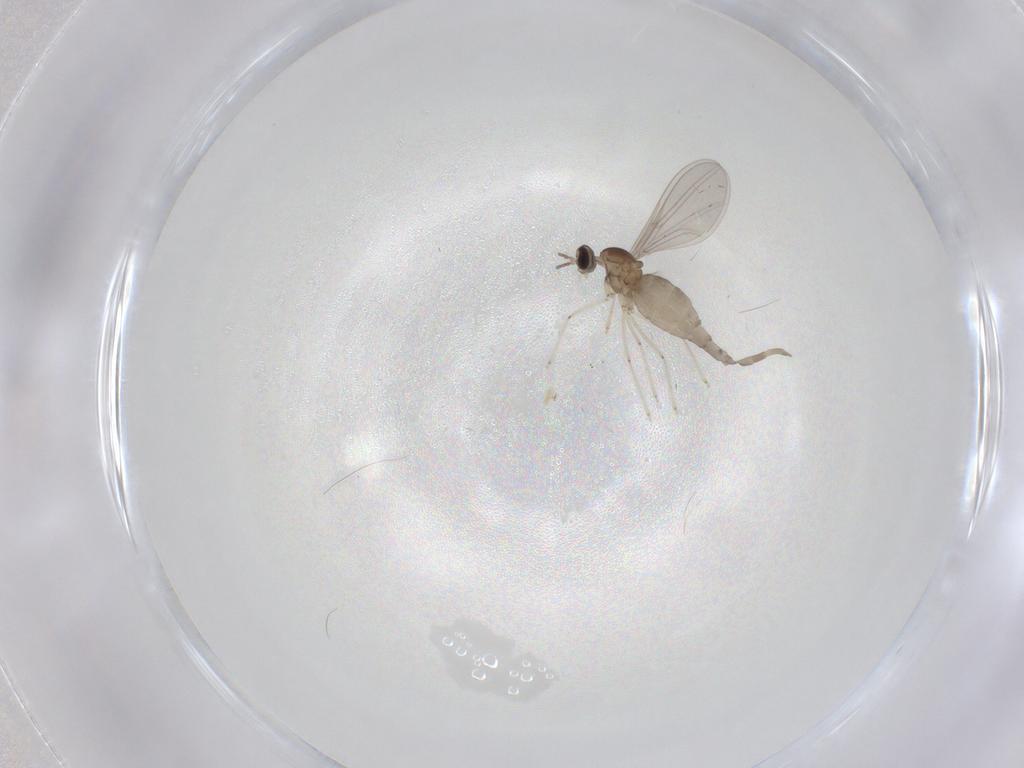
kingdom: Animalia
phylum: Arthropoda
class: Insecta
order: Diptera
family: Cecidomyiidae
